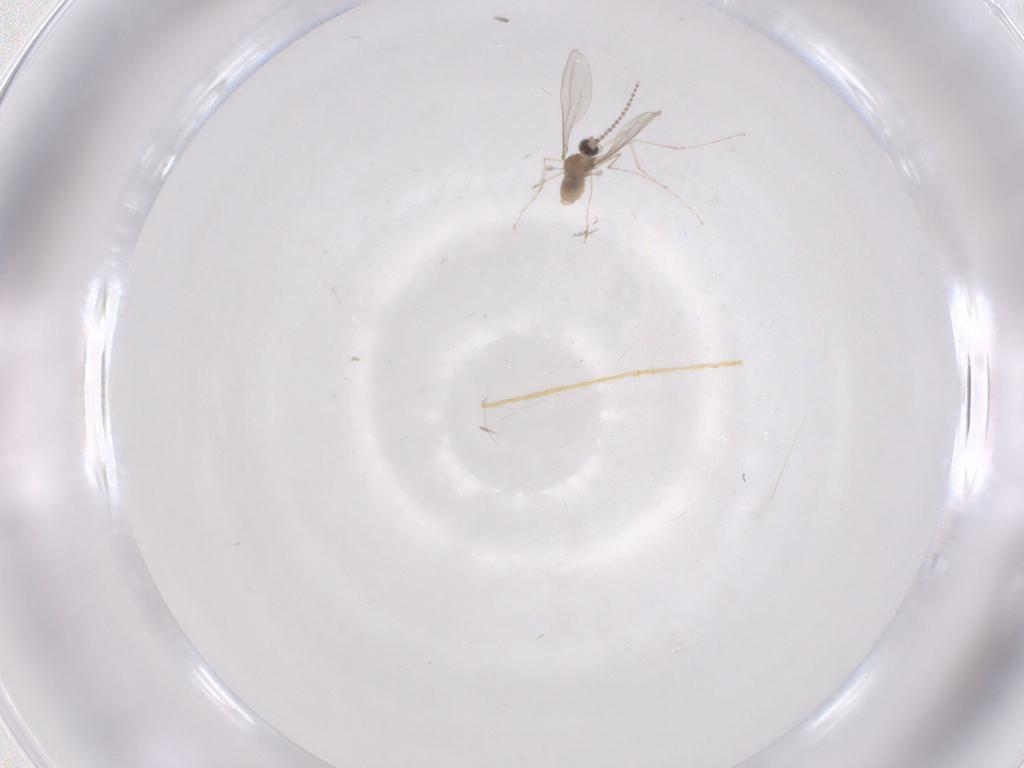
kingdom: Animalia
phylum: Arthropoda
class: Insecta
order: Diptera
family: Limoniidae
